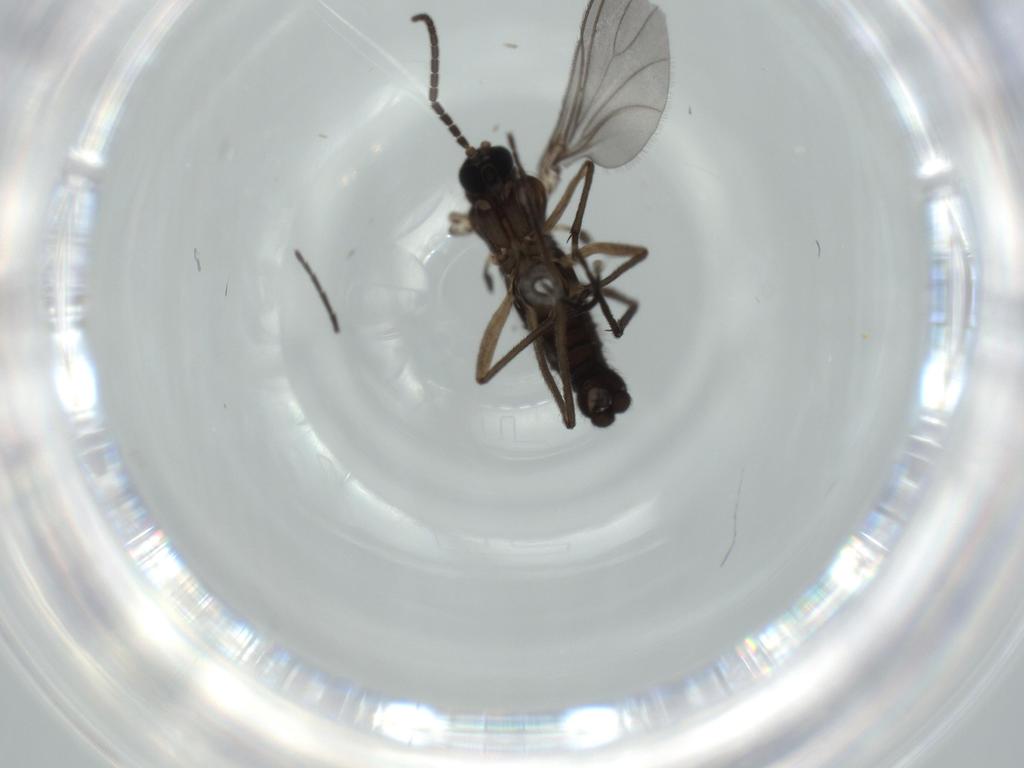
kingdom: Animalia
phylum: Arthropoda
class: Insecta
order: Diptera
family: Sciaridae
